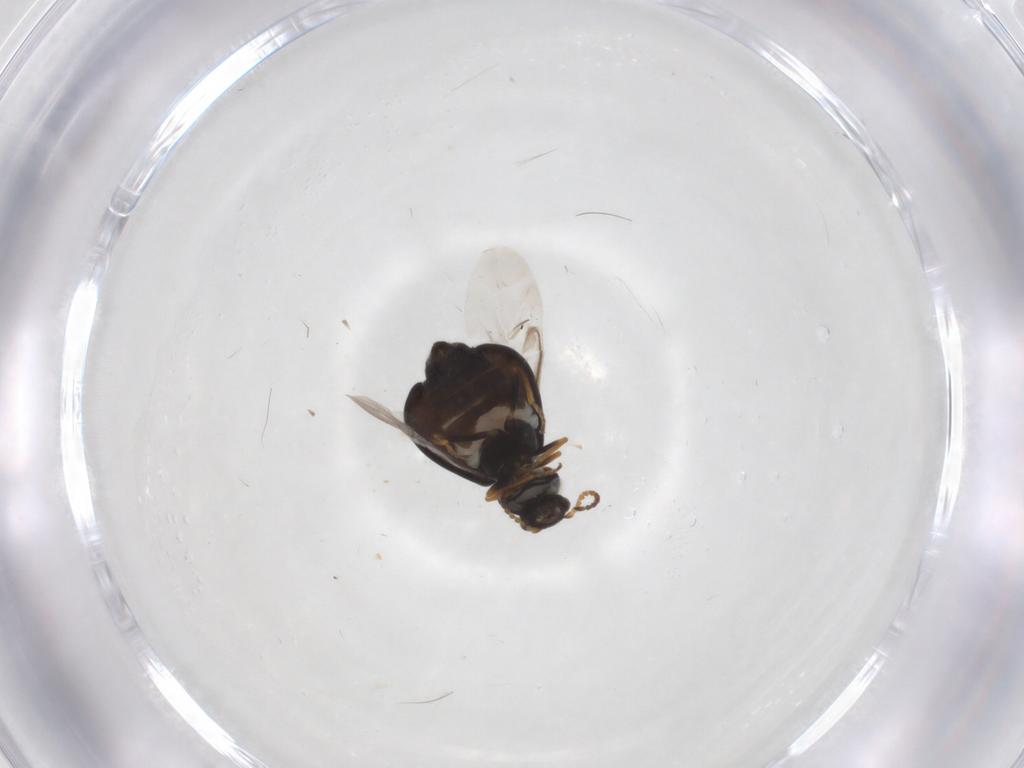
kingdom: Animalia
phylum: Arthropoda
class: Insecta
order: Coleoptera
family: Melyridae
